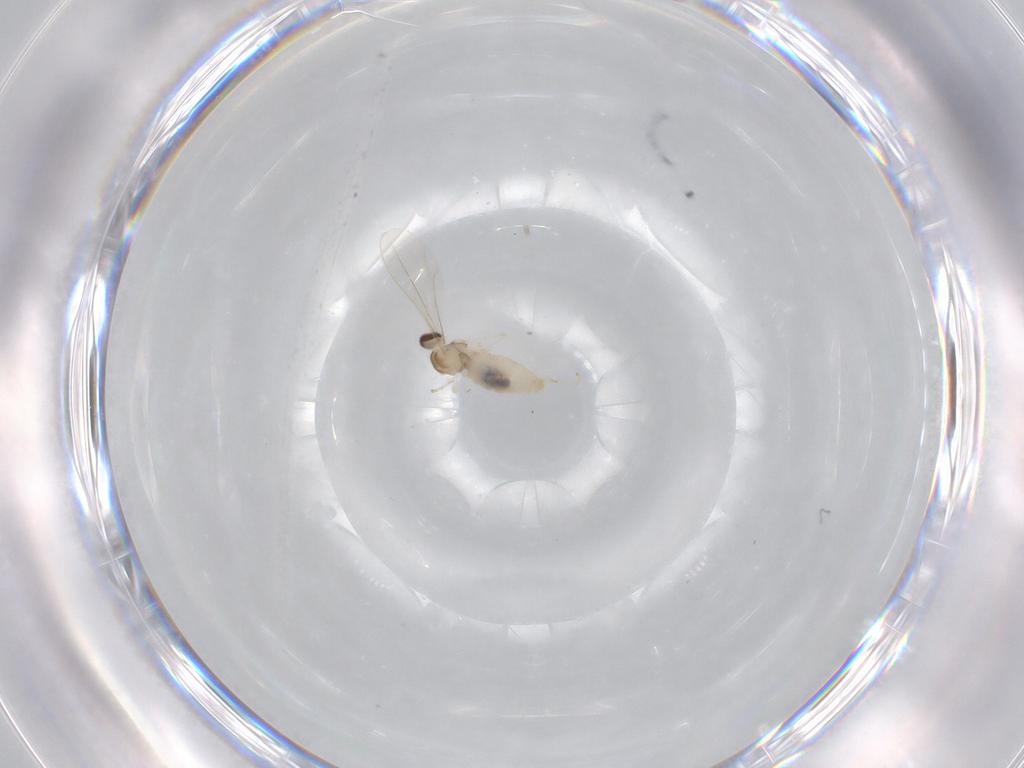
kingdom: Animalia
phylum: Arthropoda
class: Insecta
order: Diptera
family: Cecidomyiidae
